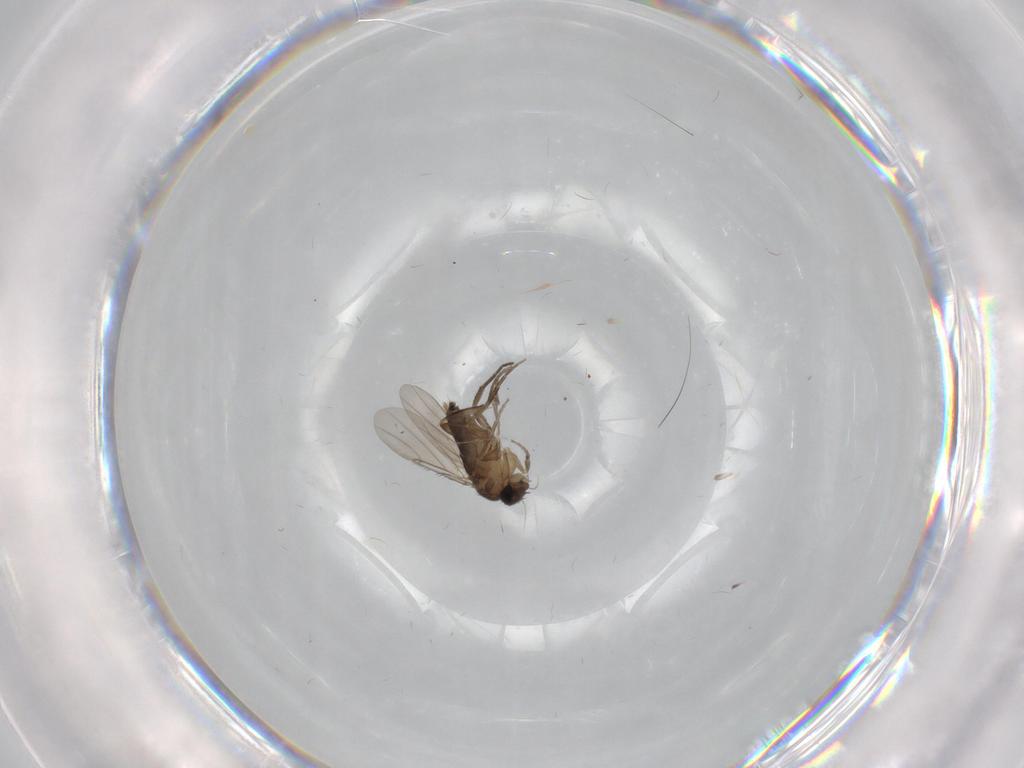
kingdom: Animalia
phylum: Arthropoda
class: Insecta
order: Diptera
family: Phoridae
